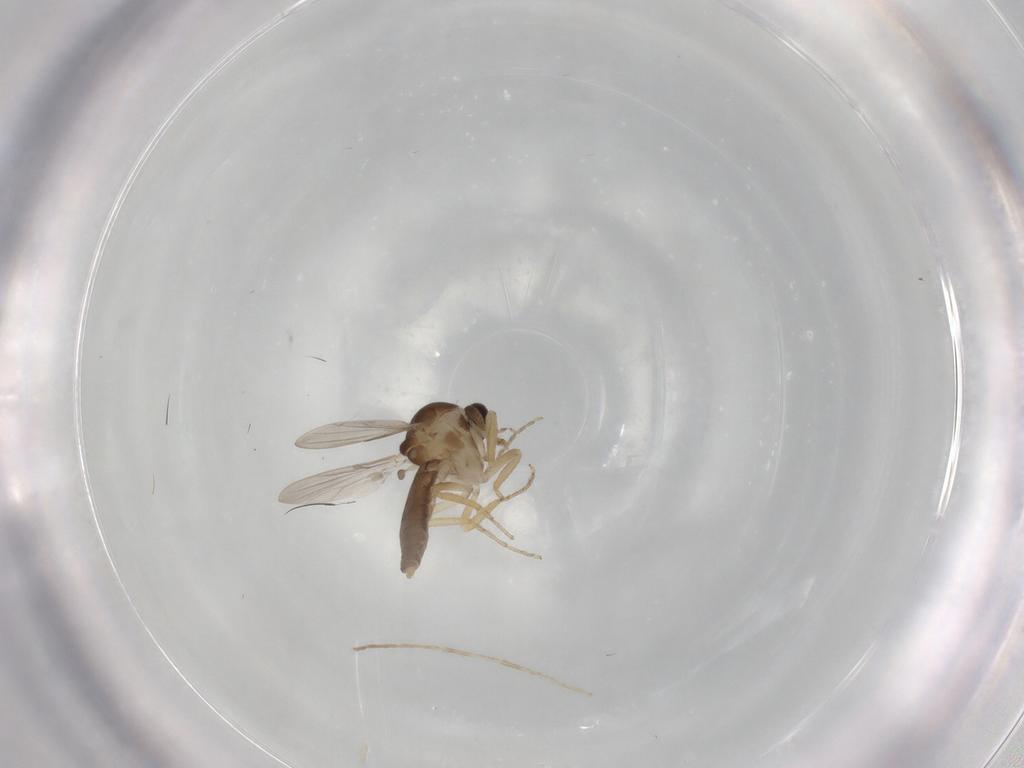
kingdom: Animalia
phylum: Arthropoda
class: Insecta
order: Diptera
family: Ceratopogonidae
